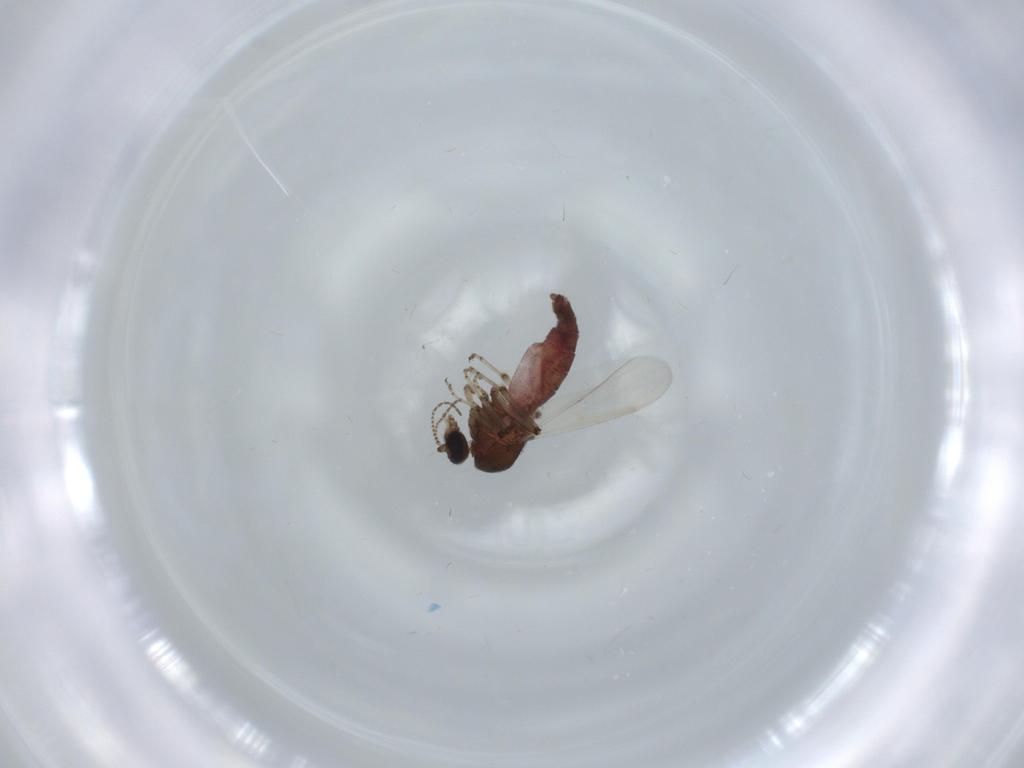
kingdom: Animalia
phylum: Arthropoda
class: Insecta
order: Diptera
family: Ceratopogonidae
